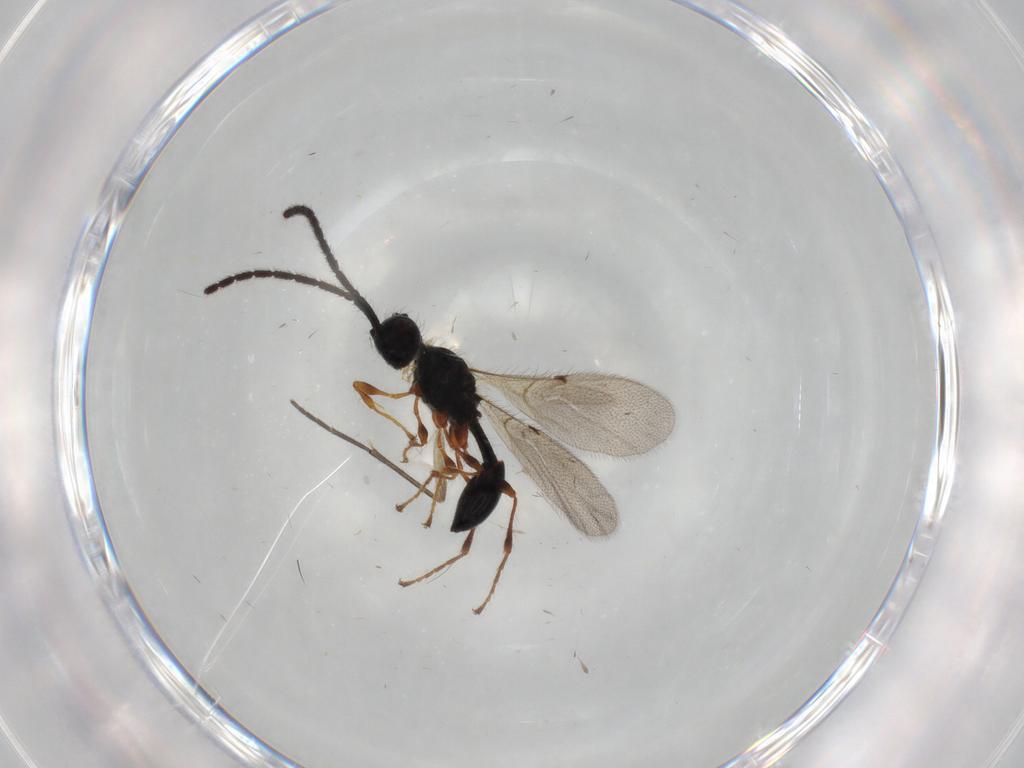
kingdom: Animalia
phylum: Arthropoda
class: Insecta
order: Hymenoptera
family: Diapriidae
